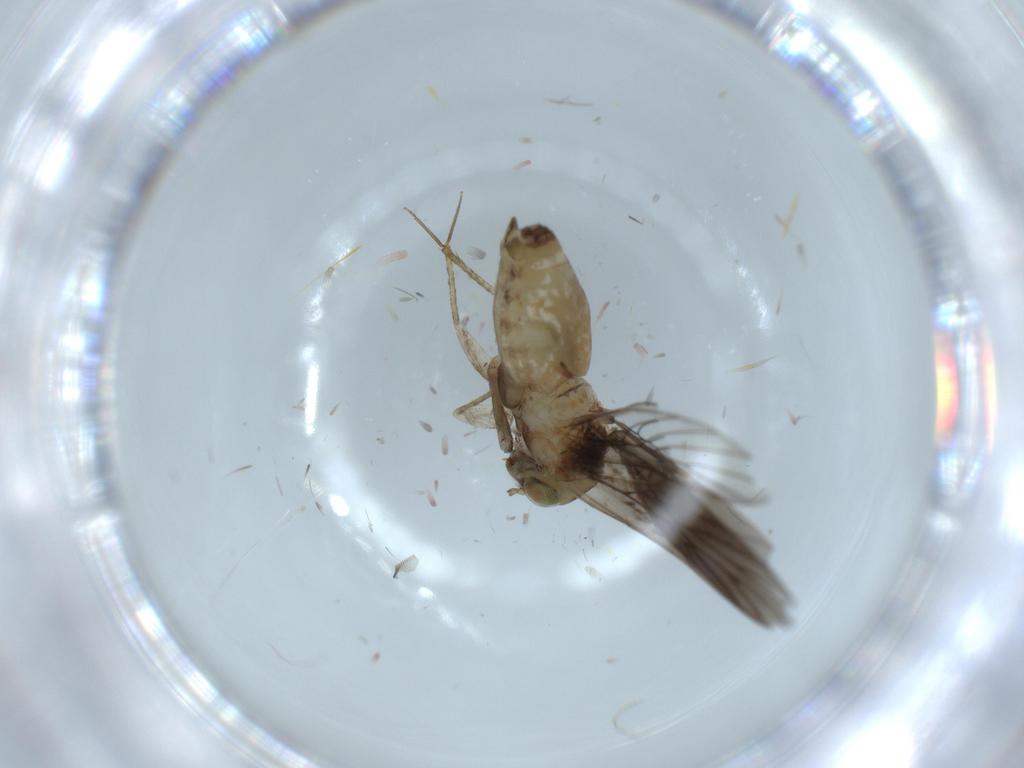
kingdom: Animalia
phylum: Arthropoda
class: Insecta
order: Psocodea
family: Lepidopsocidae
